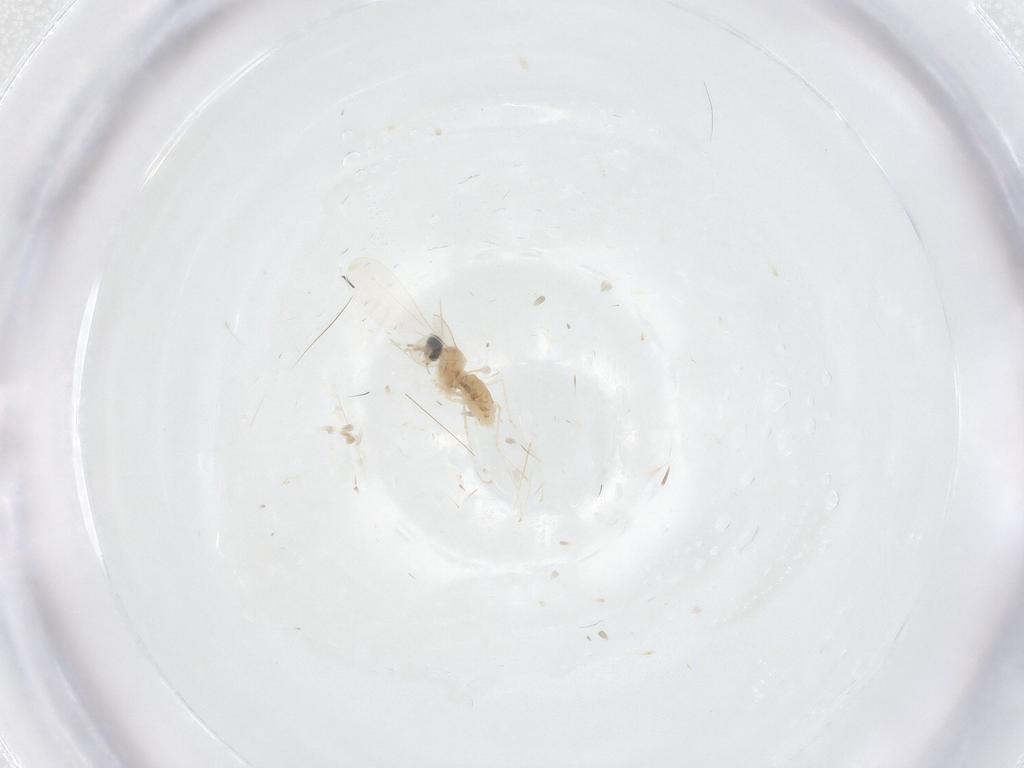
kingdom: Animalia
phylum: Arthropoda
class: Insecta
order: Diptera
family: Cecidomyiidae
